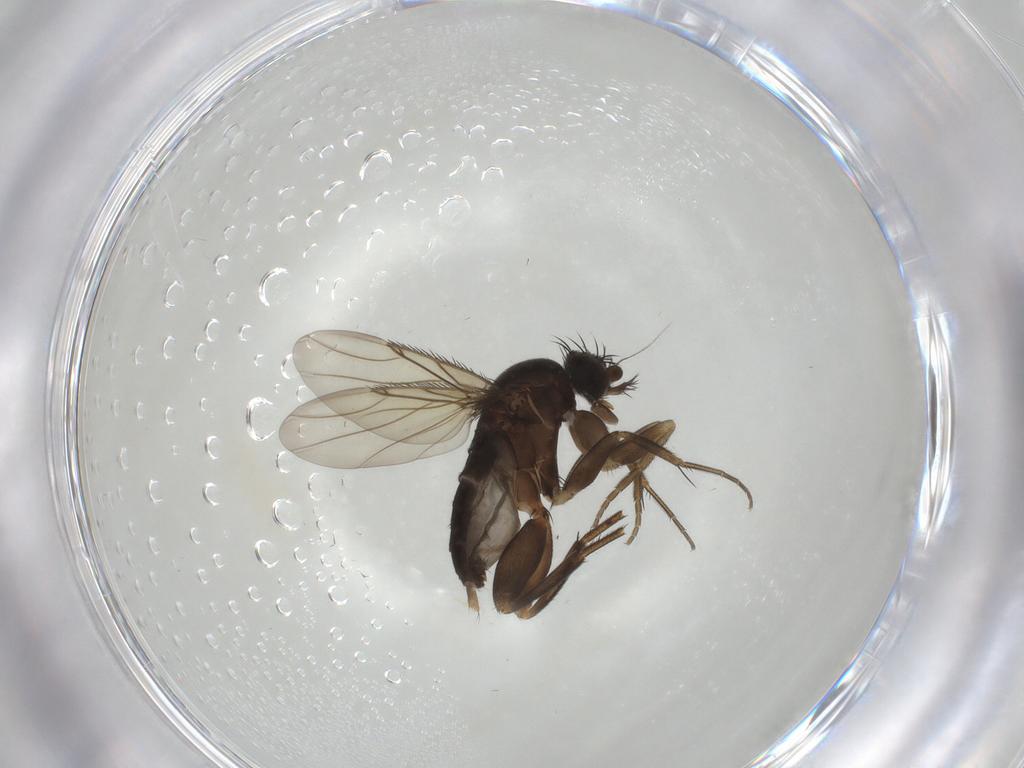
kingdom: Animalia
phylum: Arthropoda
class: Insecta
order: Diptera
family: Phoridae
